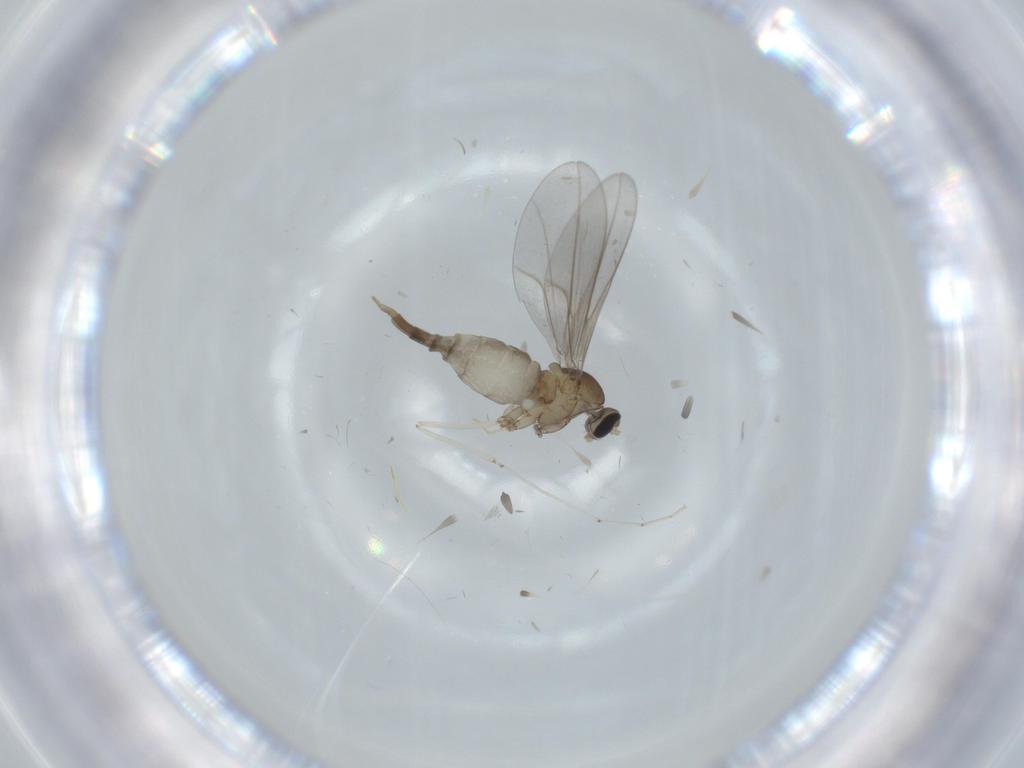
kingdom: Animalia
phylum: Arthropoda
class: Insecta
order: Diptera
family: Cecidomyiidae
